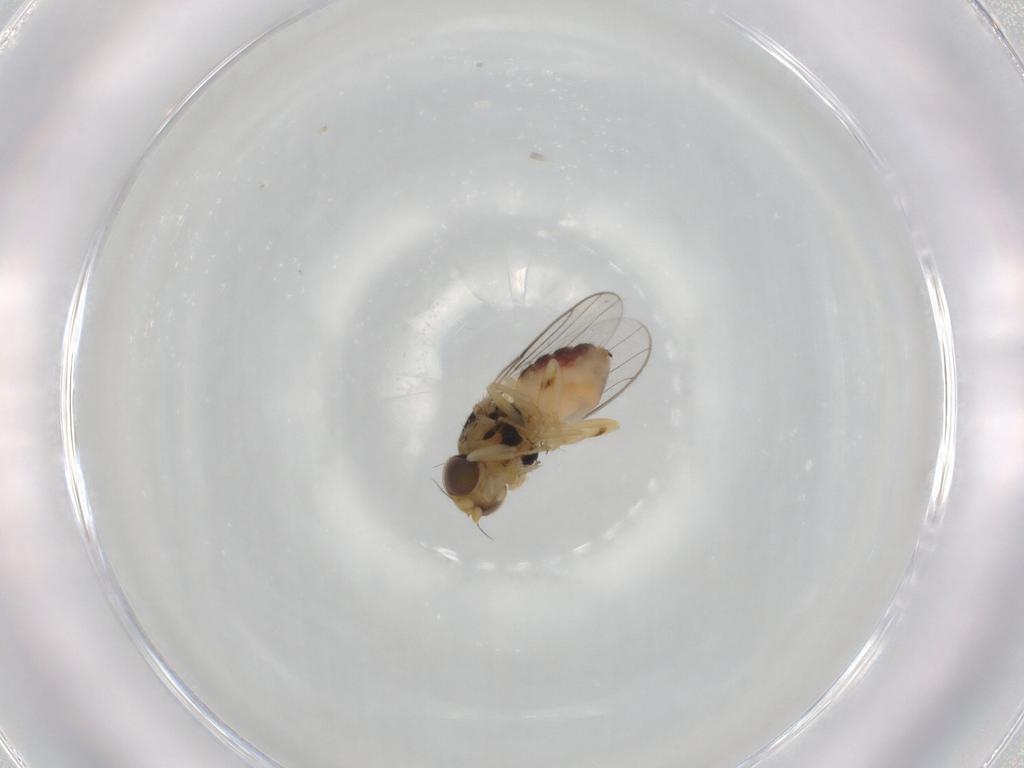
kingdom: Animalia
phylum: Arthropoda
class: Insecta
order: Diptera
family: Chloropidae
